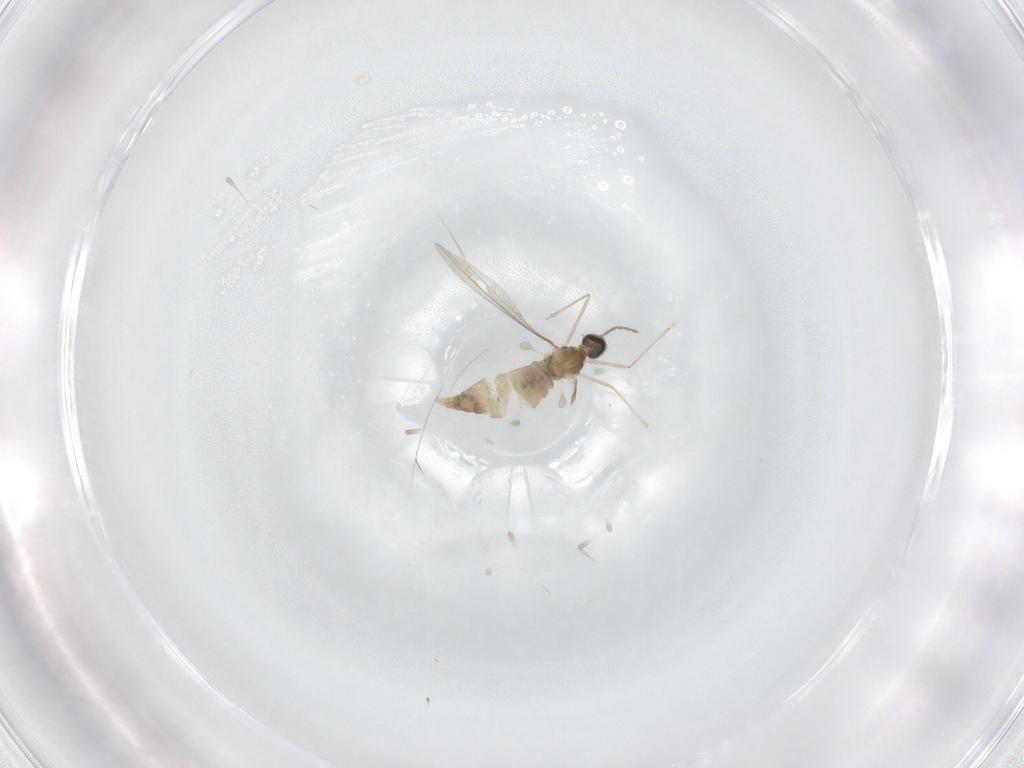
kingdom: Animalia
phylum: Arthropoda
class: Insecta
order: Diptera
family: Cecidomyiidae
